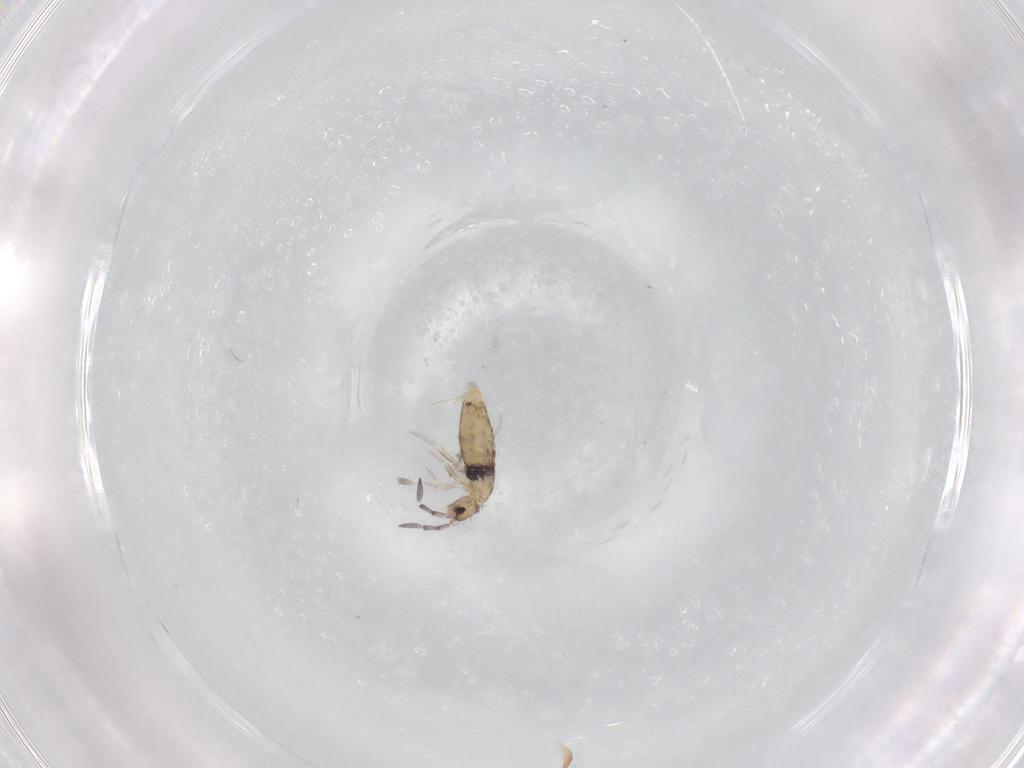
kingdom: Animalia
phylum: Arthropoda
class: Collembola
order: Entomobryomorpha
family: Entomobryidae
